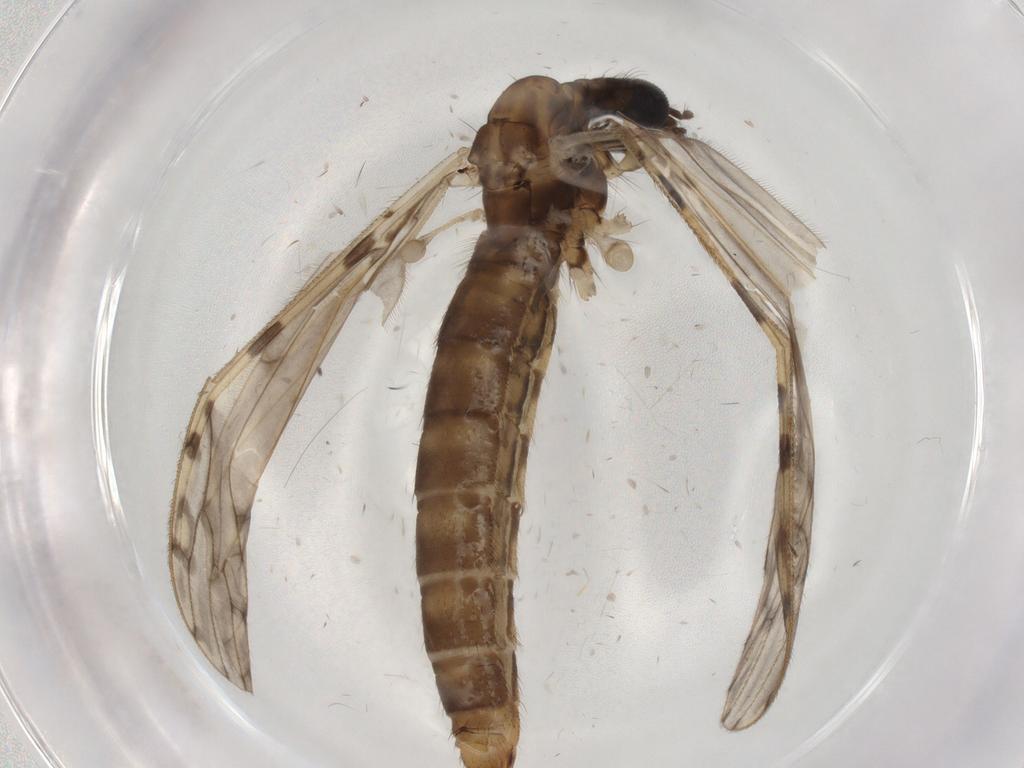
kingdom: Animalia
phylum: Arthropoda
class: Insecta
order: Diptera
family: Limoniidae
